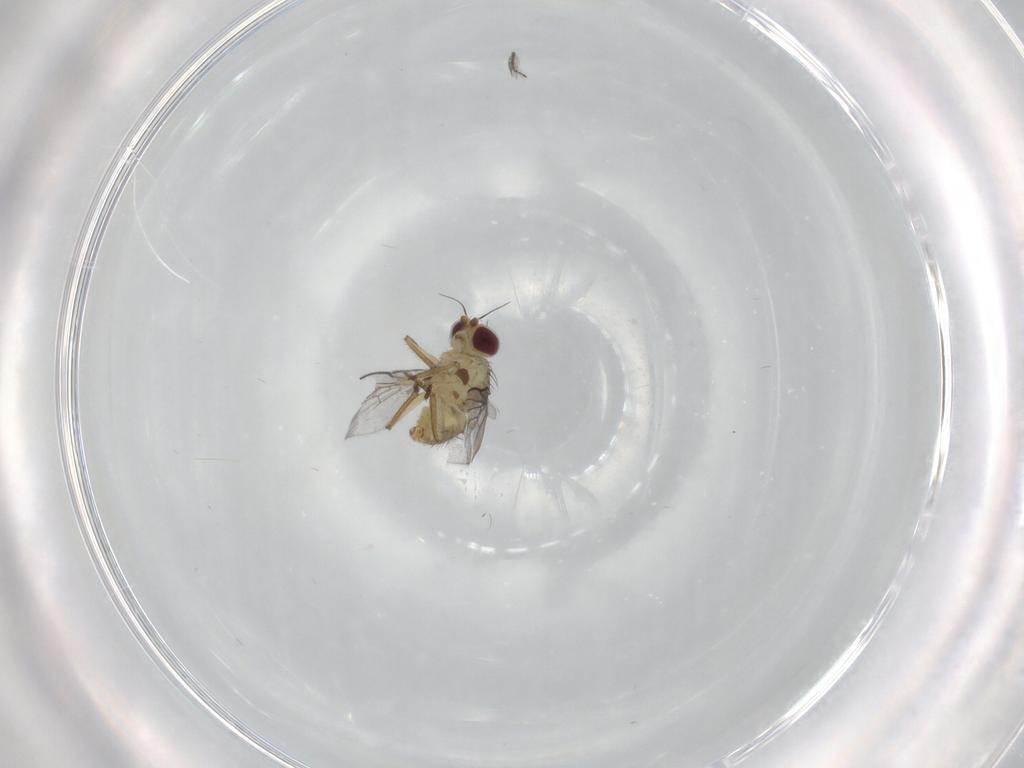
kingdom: Animalia
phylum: Arthropoda
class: Insecta
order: Diptera
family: Agromyzidae
